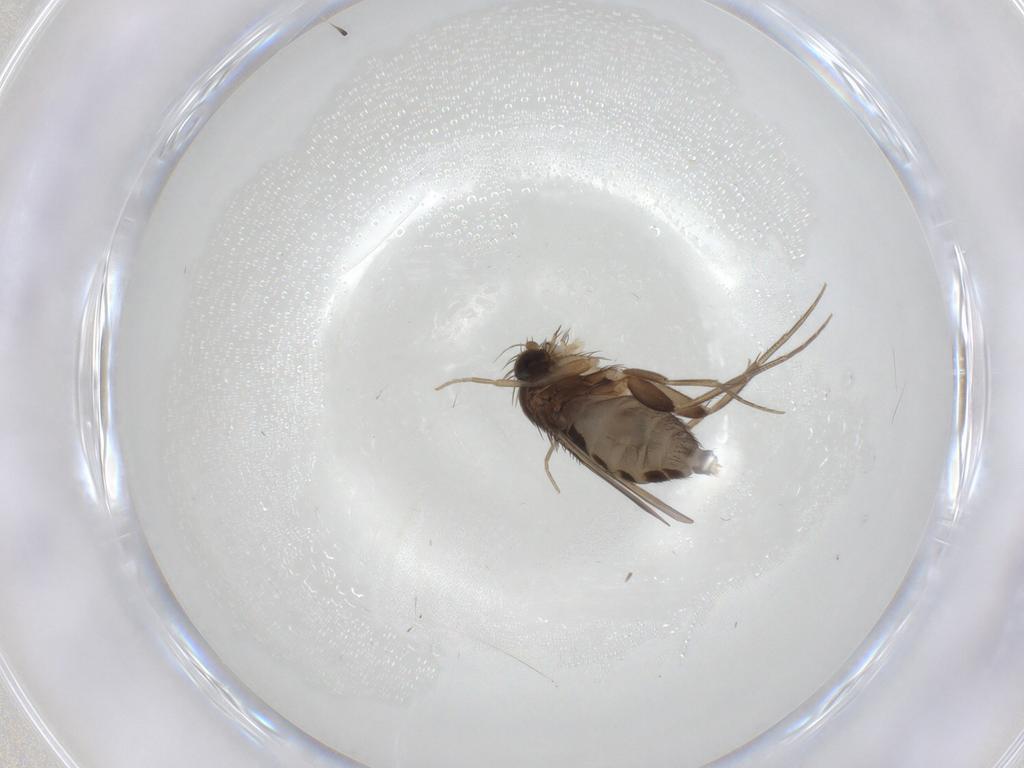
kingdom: Animalia
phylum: Arthropoda
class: Insecta
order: Diptera
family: Phoridae
